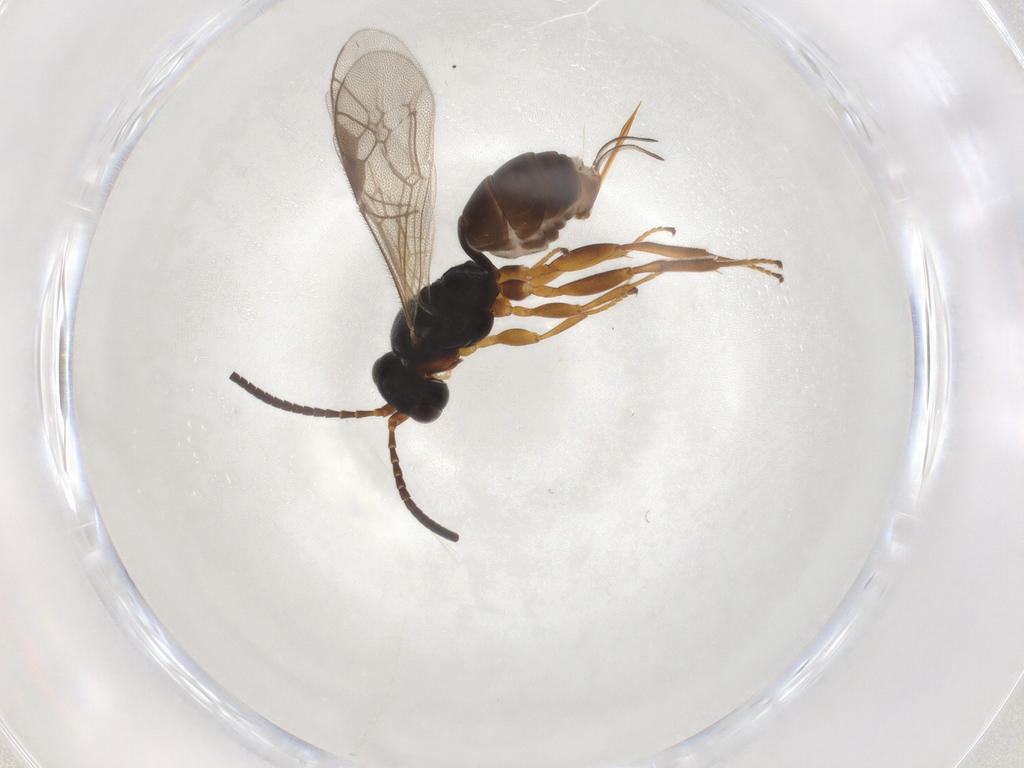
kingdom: Animalia
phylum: Arthropoda
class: Insecta
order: Hymenoptera
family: Ichneumonidae
